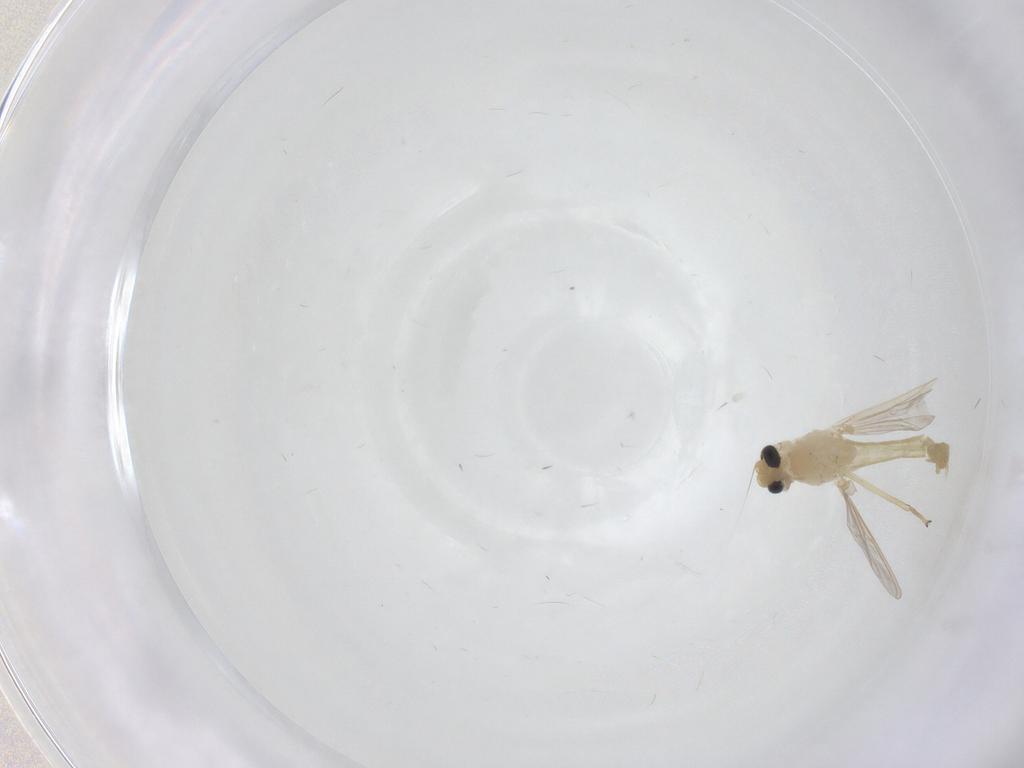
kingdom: Animalia
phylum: Arthropoda
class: Insecta
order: Diptera
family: Chironomidae
